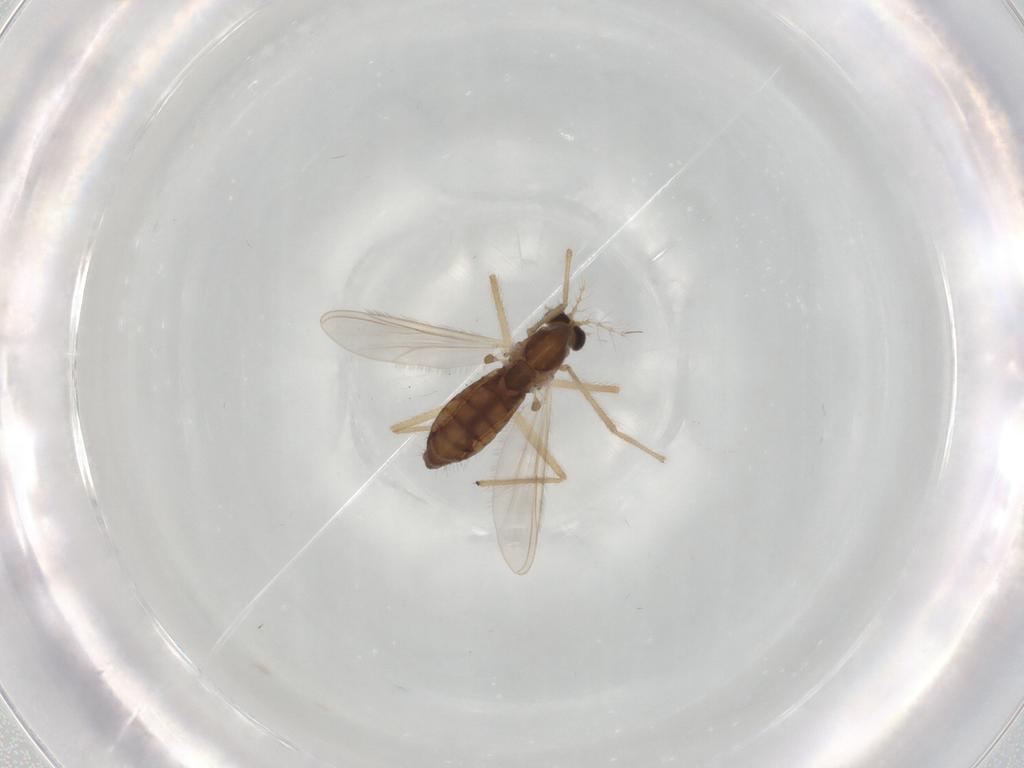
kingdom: Animalia
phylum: Arthropoda
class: Insecta
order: Diptera
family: Chironomidae
